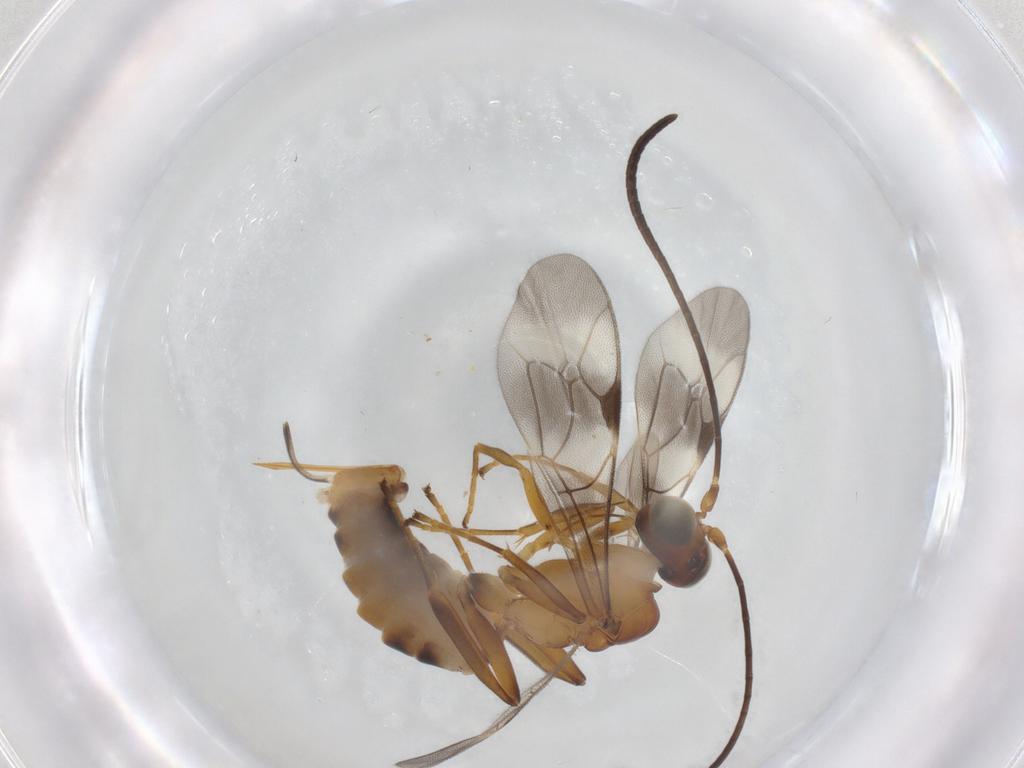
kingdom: Animalia
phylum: Arthropoda
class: Insecta
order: Hymenoptera
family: Ichneumonidae
